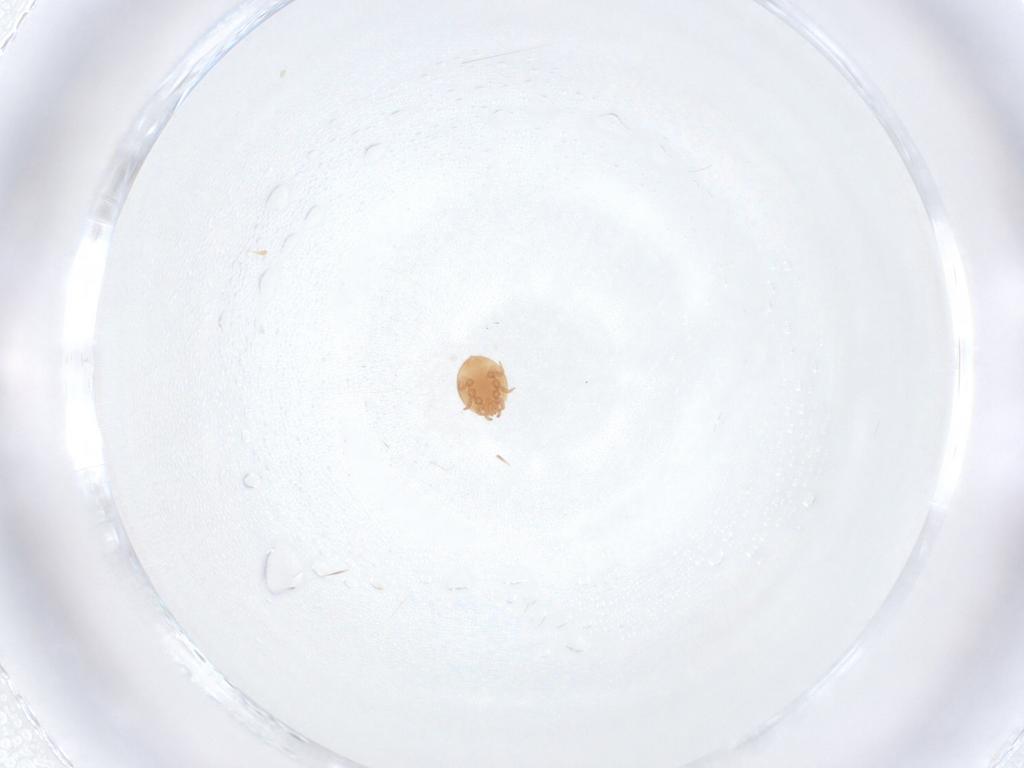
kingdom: Animalia
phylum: Arthropoda
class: Arachnida
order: Mesostigmata
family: Trematuridae
